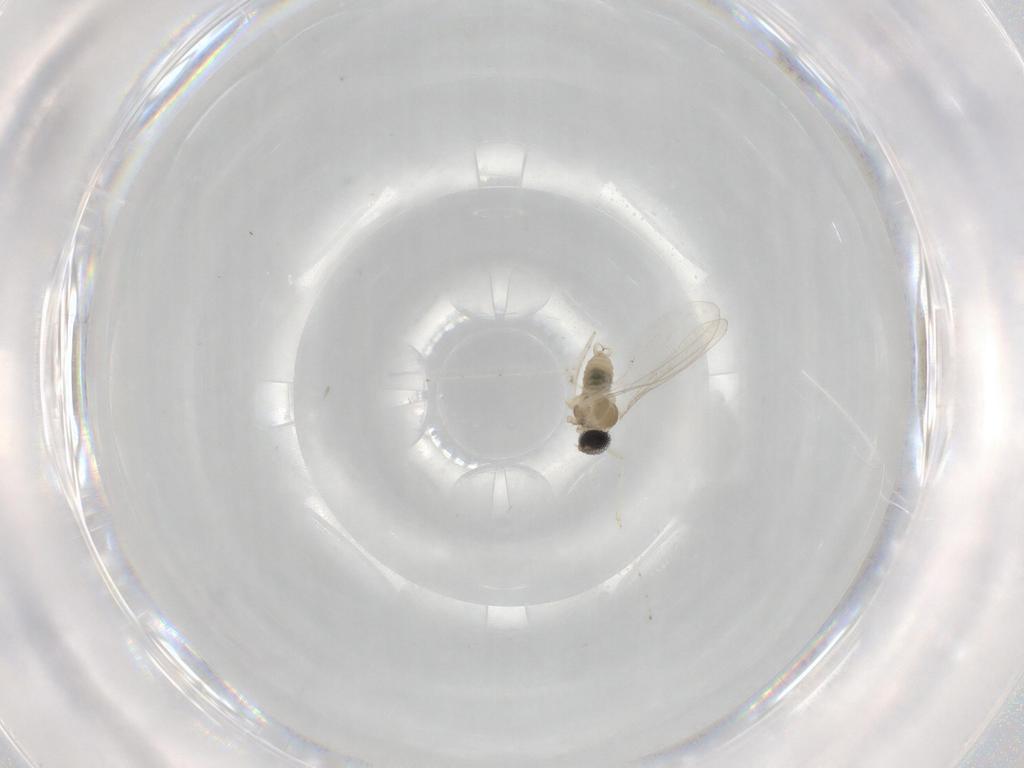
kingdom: Animalia
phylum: Arthropoda
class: Insecta
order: Diptera
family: Cecidomyiidae
